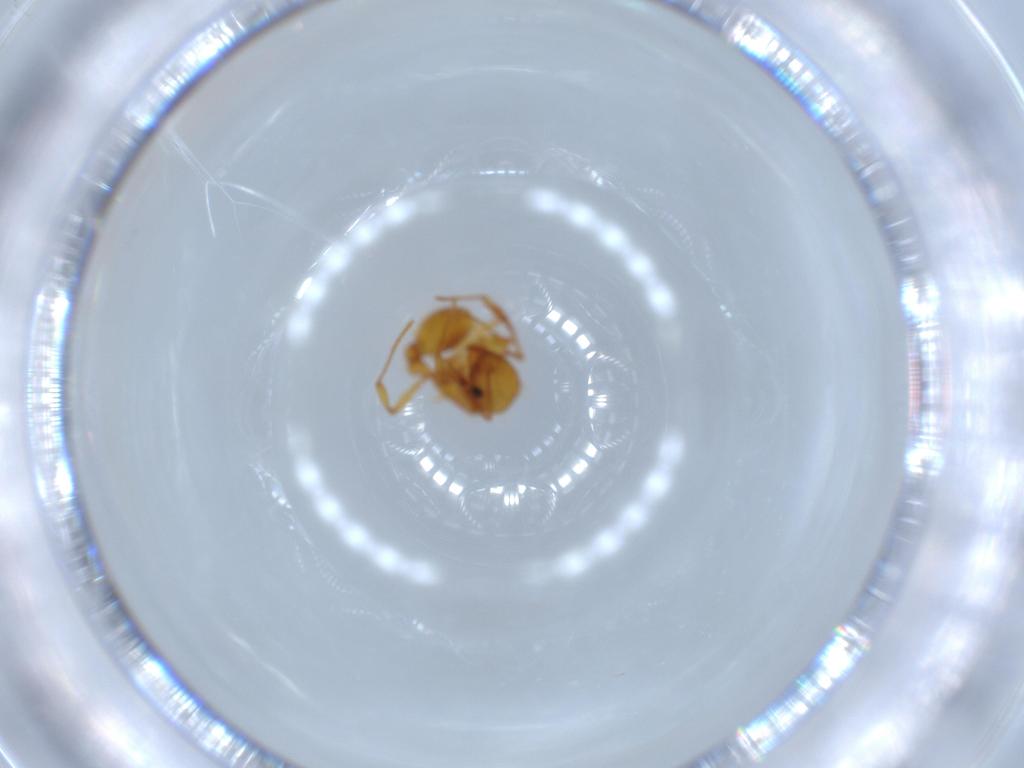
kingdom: Animalia
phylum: Arthropoda
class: Insecta
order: Hymenoptera
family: Formicidae
